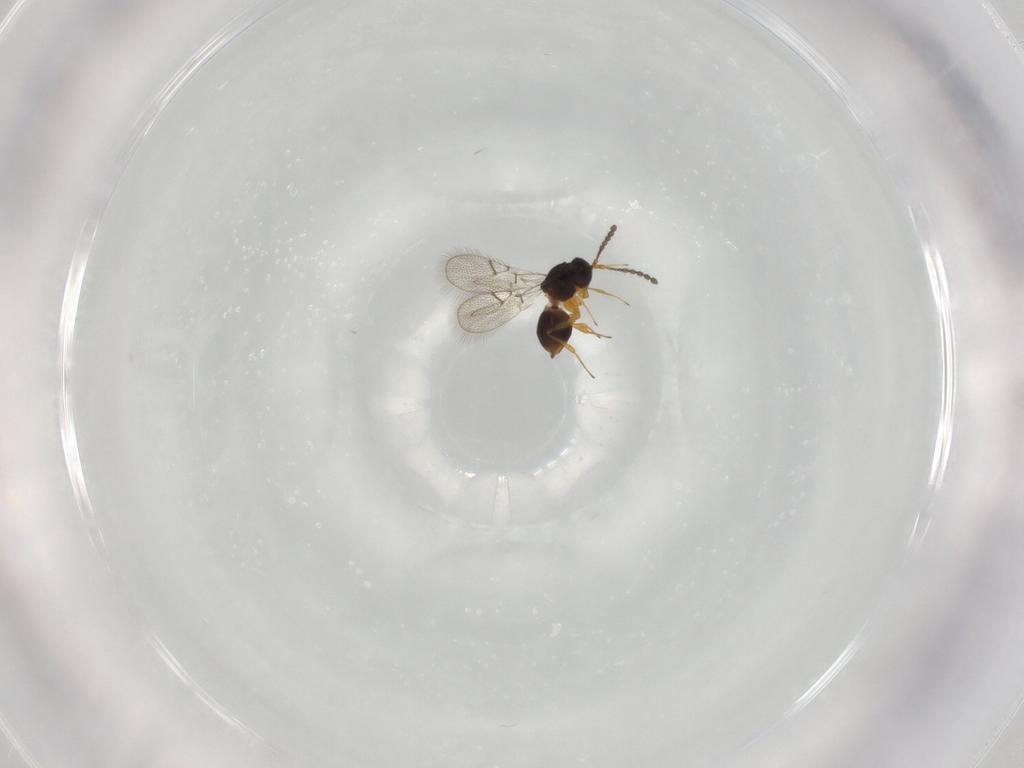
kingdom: Animalia
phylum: Arthropoda
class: Insecta
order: Hymenoptera
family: Figitidae
